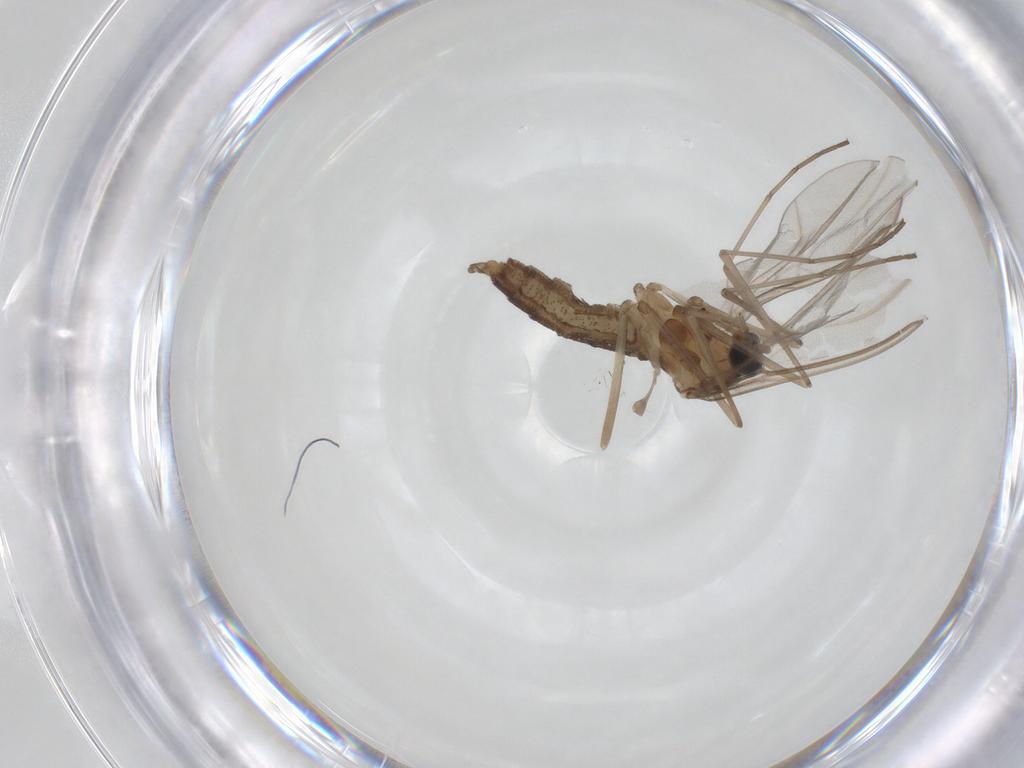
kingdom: Animalia
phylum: Arthropoda
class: Insecta
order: Diptera
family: Cecidomyiidae
